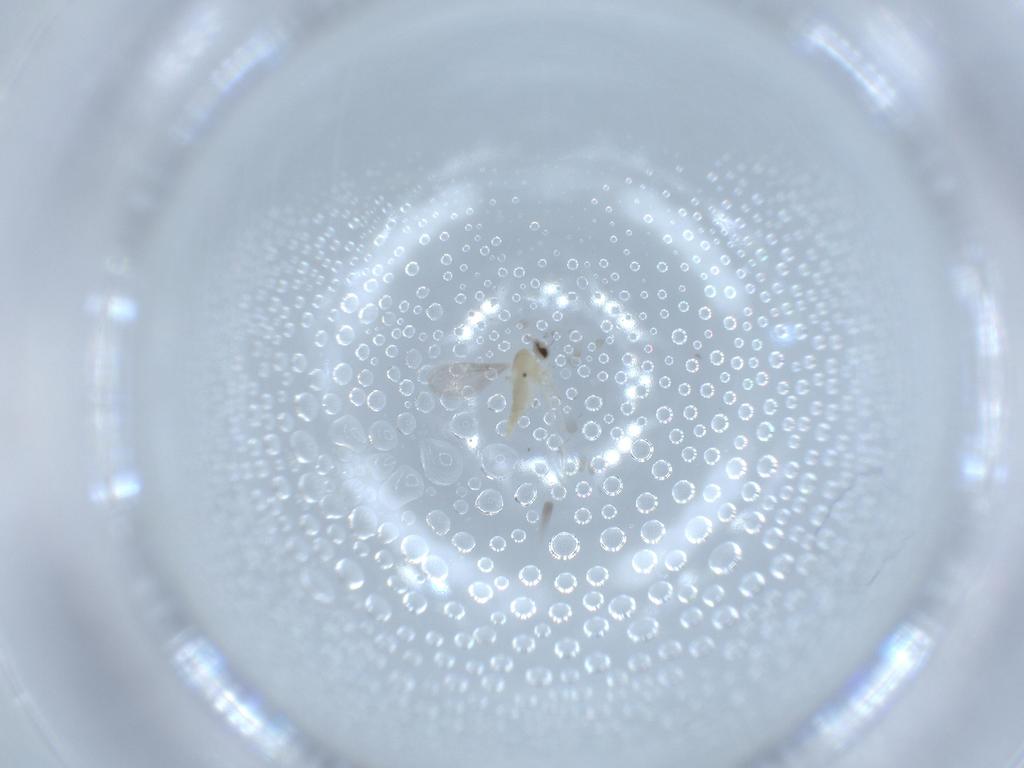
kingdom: Animalia
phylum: Arthropoda
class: Insecta
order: Diptera
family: Cecidomyiidae
